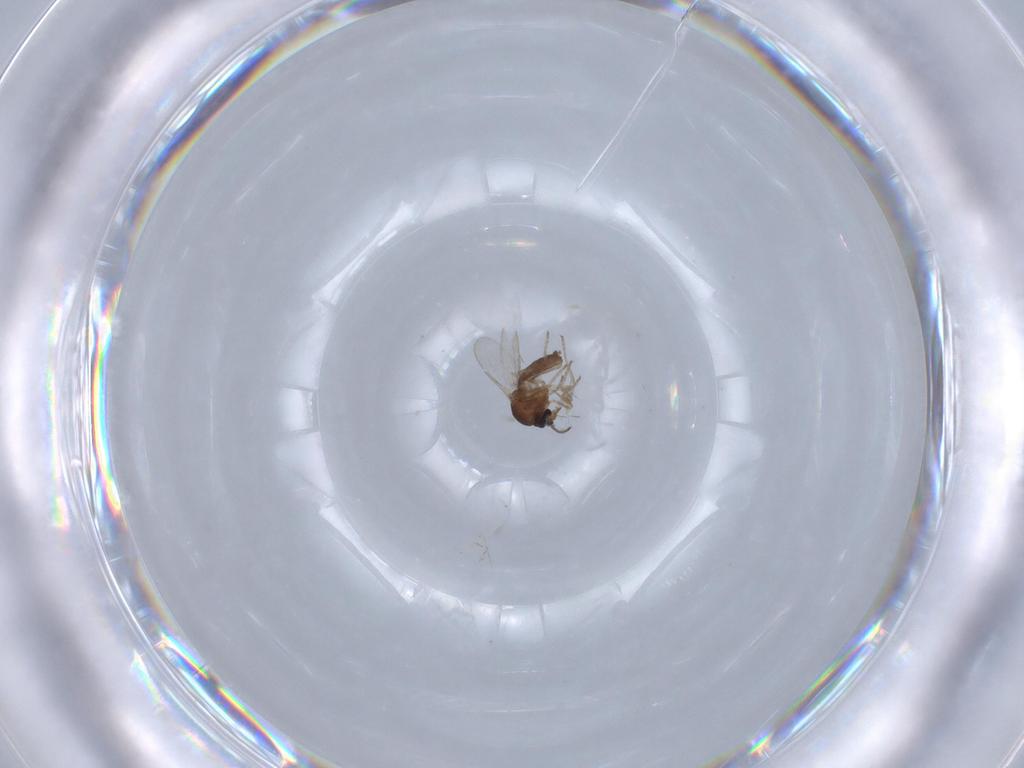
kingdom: Animalia
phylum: Arthropoda
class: Insecta
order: Diptera
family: Ceratopogonidae
